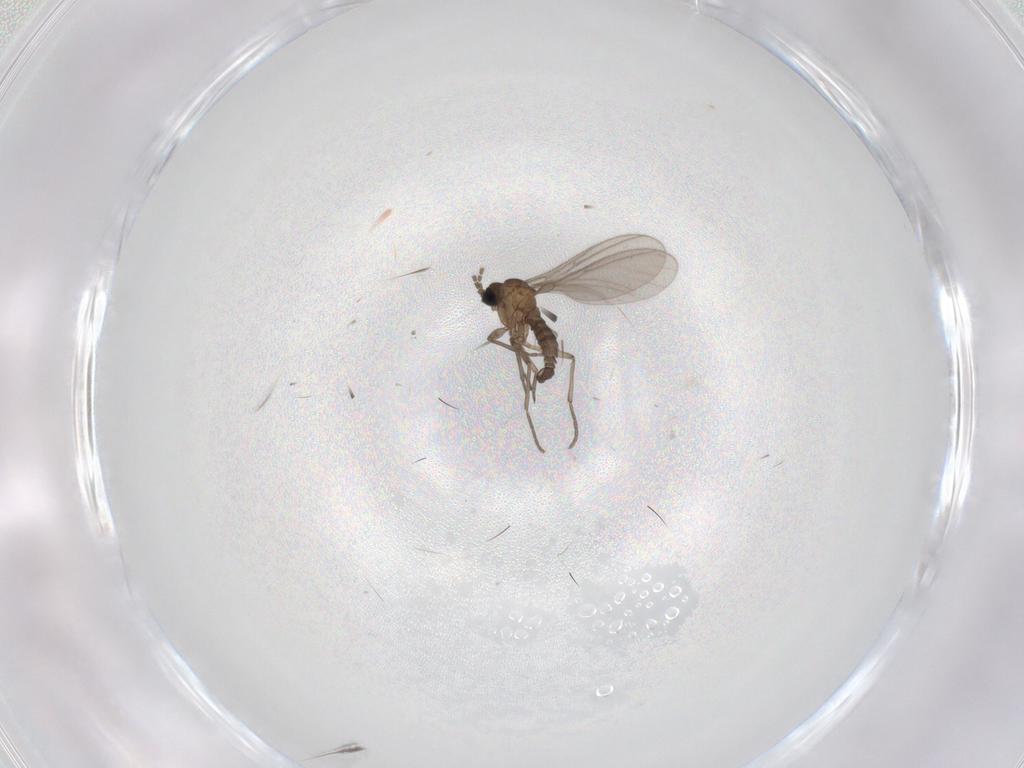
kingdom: Animalia
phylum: Arthropoda
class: Insecta
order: Diptera
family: Sciaridae
